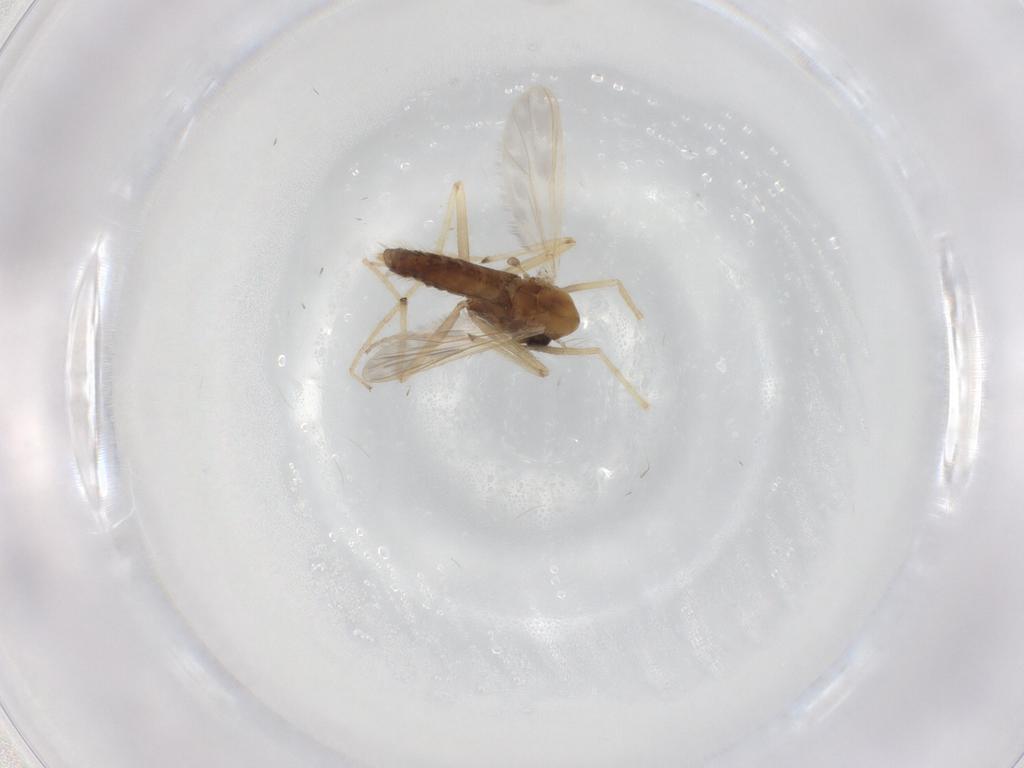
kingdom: Animalia
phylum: Arthropoda
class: Insecta
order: Diptera
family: Chironomidae
